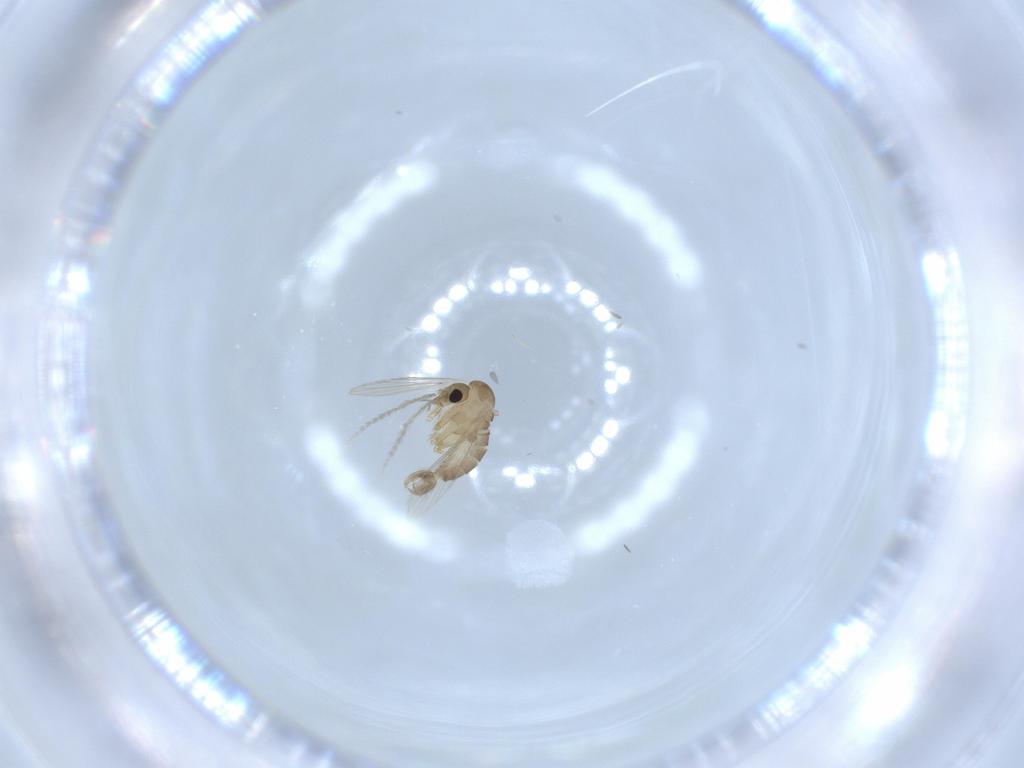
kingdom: Animalia
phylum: Arthropoda
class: Insecta
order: Diptera
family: Psychodidae
